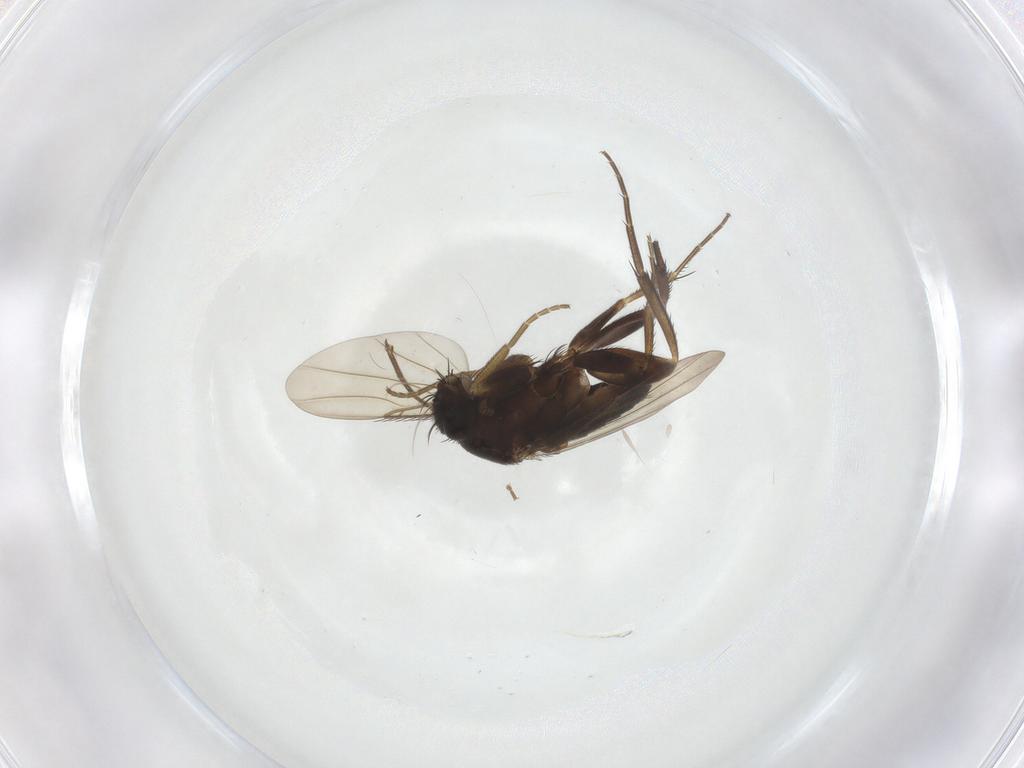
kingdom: Animalia
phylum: Arthropoda
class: Insecta
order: Diptera
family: Phoridae
